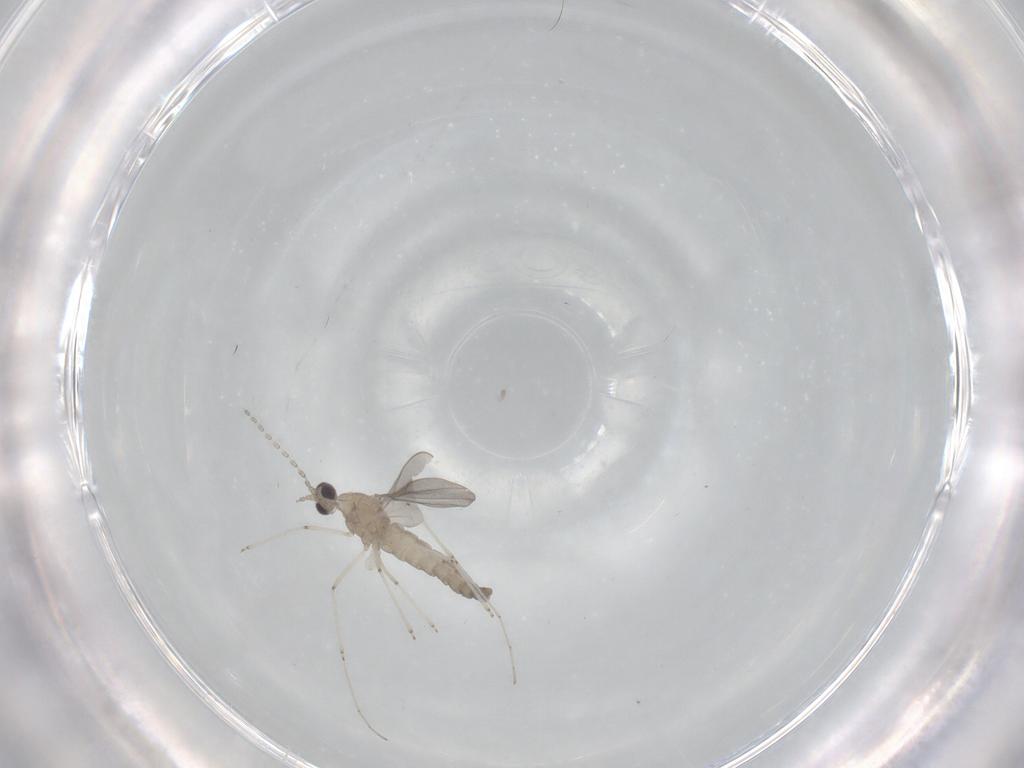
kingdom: Animalia
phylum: Arthropoda
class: Insecta
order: Diptera
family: Cecidomyiidae
